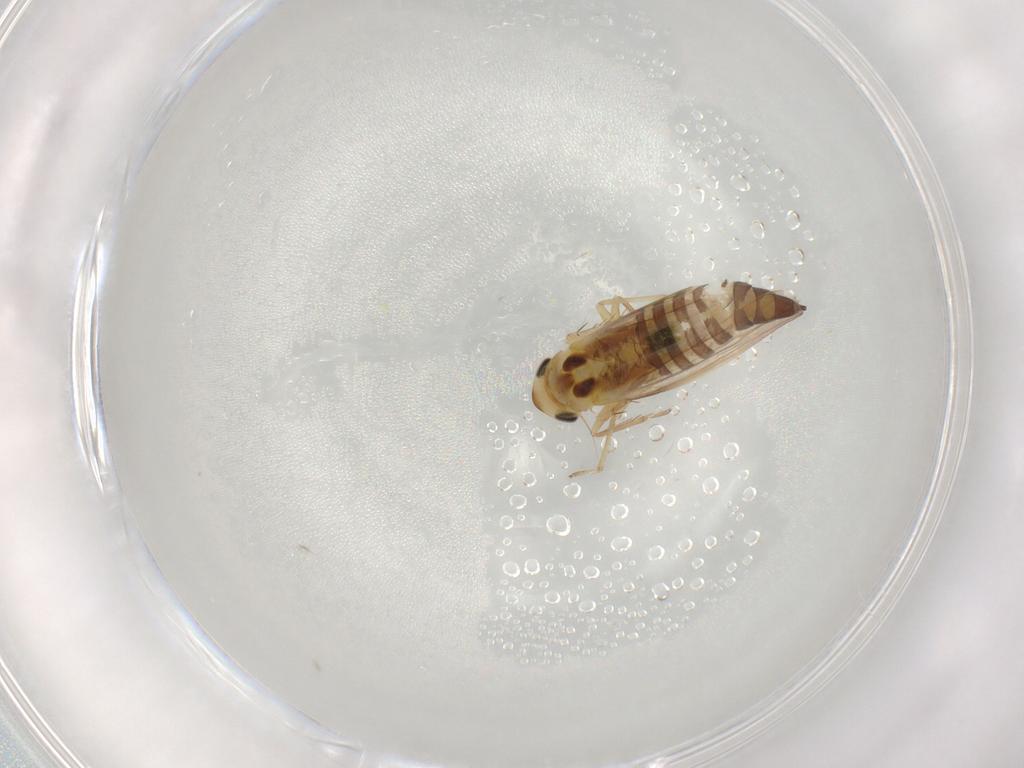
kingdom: Animalia
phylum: Arthropoda
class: Insecta
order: Hemiptera
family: Cicadellidae
